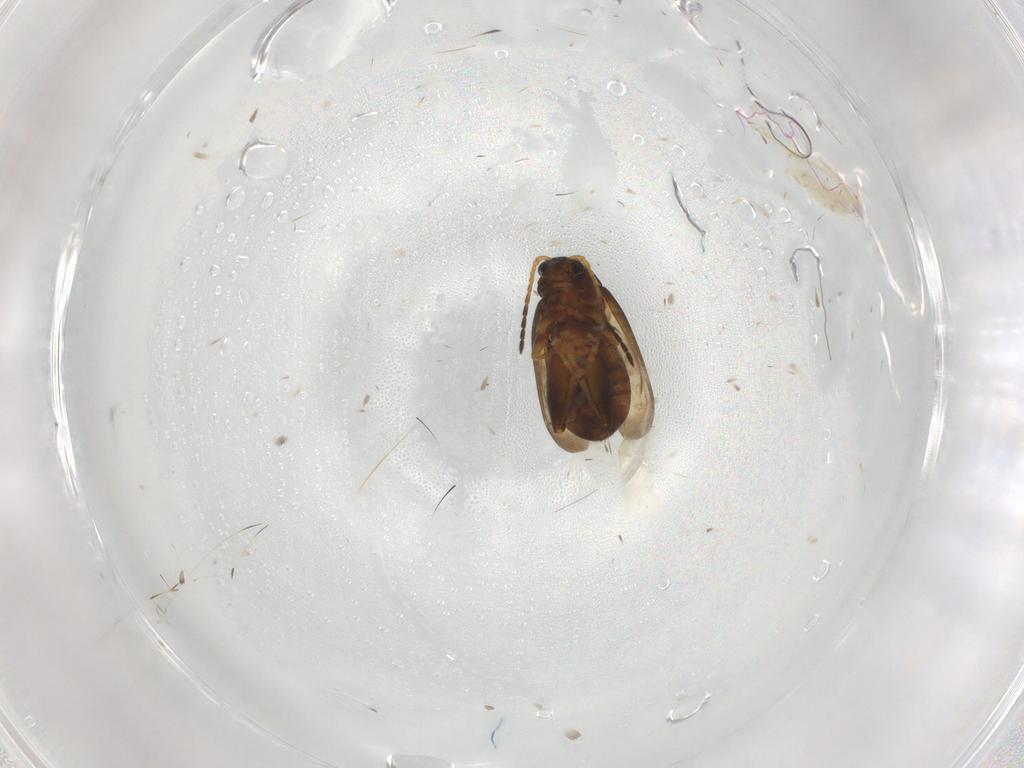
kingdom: Animalia
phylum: Arthropoda
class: Insecta
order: Coleoptera
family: Chrysomelidae
